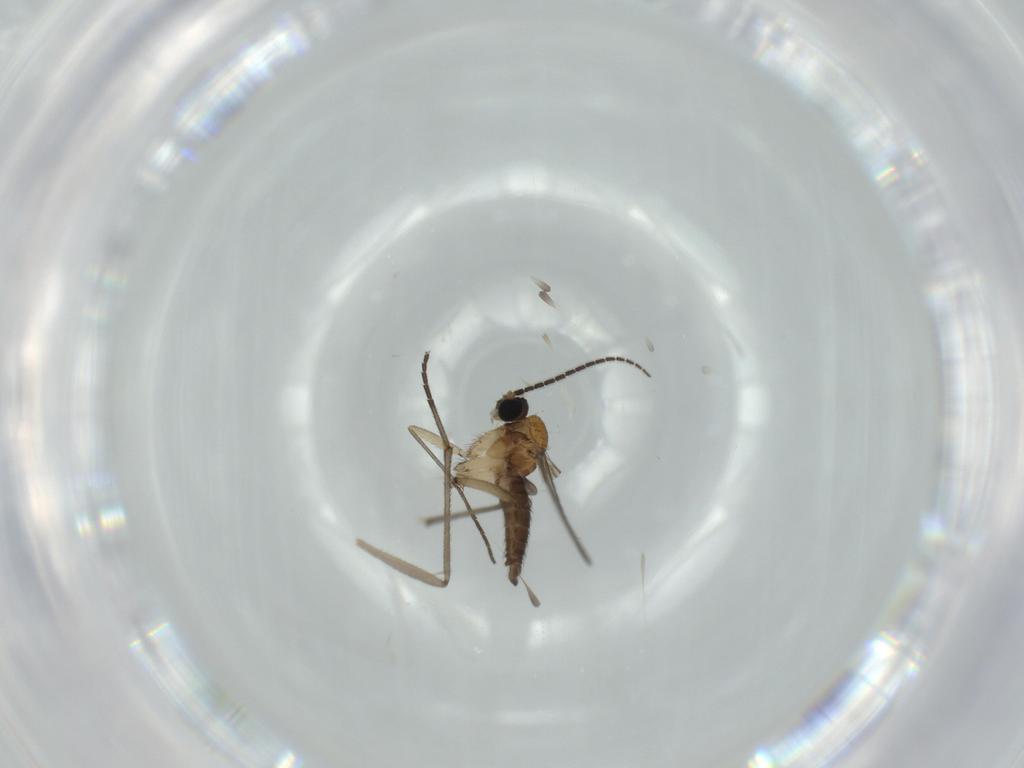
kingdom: Animalia
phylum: Arthropoda
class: Insecta
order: Diptera
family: Sciaridae
